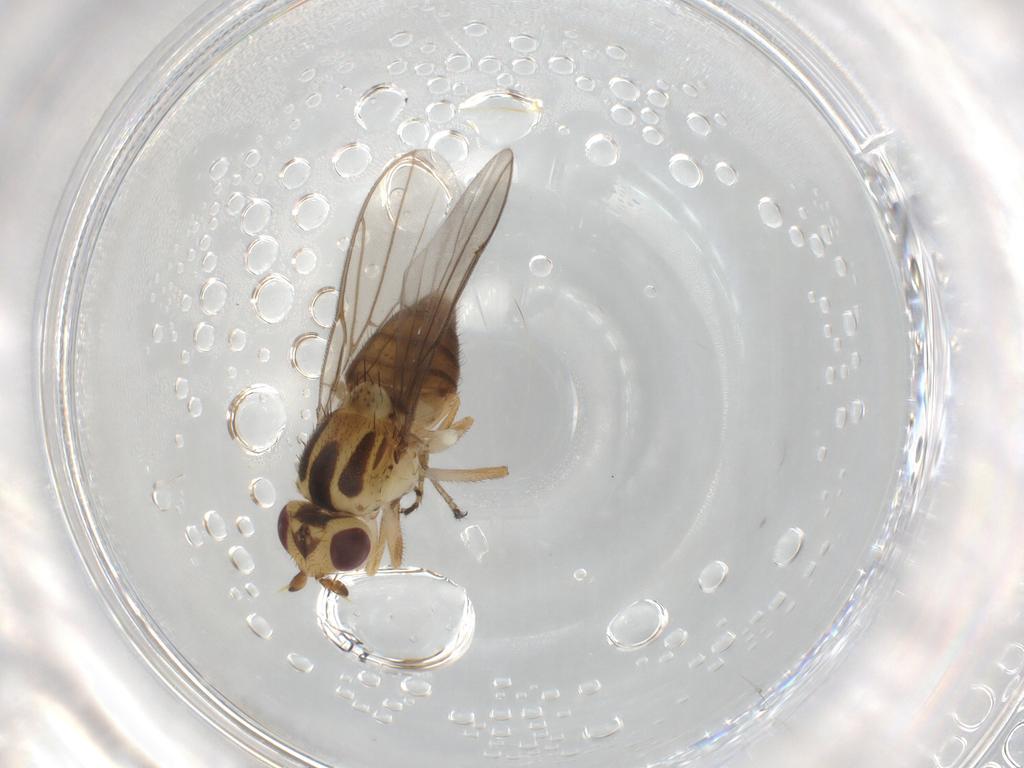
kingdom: Animalia
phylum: Arthropoda
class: Insecta
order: Diptera
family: Chloropidae
